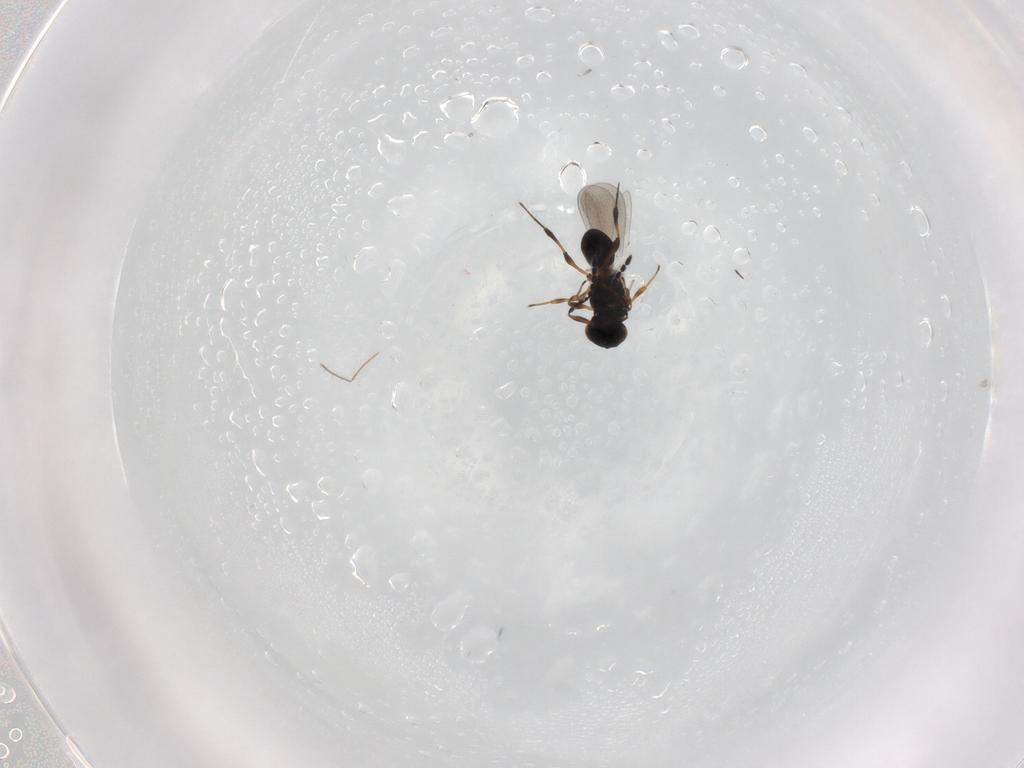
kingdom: Animalia
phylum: Arthropoda
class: Insecta
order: Hymenoptera
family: Platygastridae
